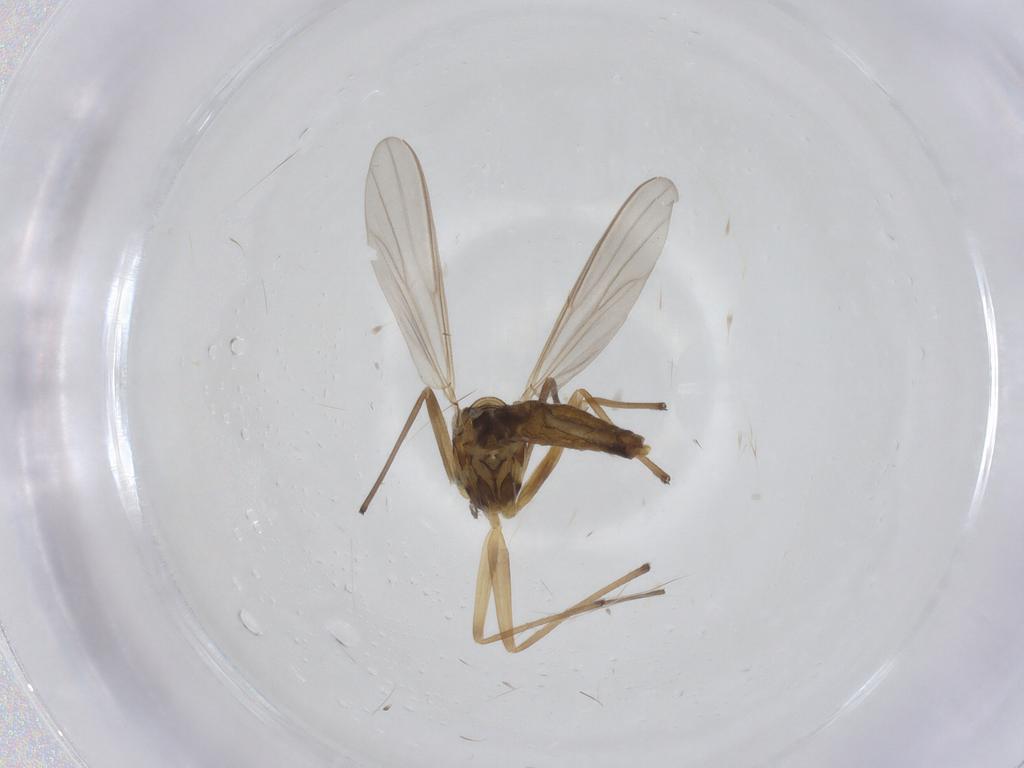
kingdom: Animalia
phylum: Arthropoda
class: Insecta
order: Diptera
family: Chironomidae
